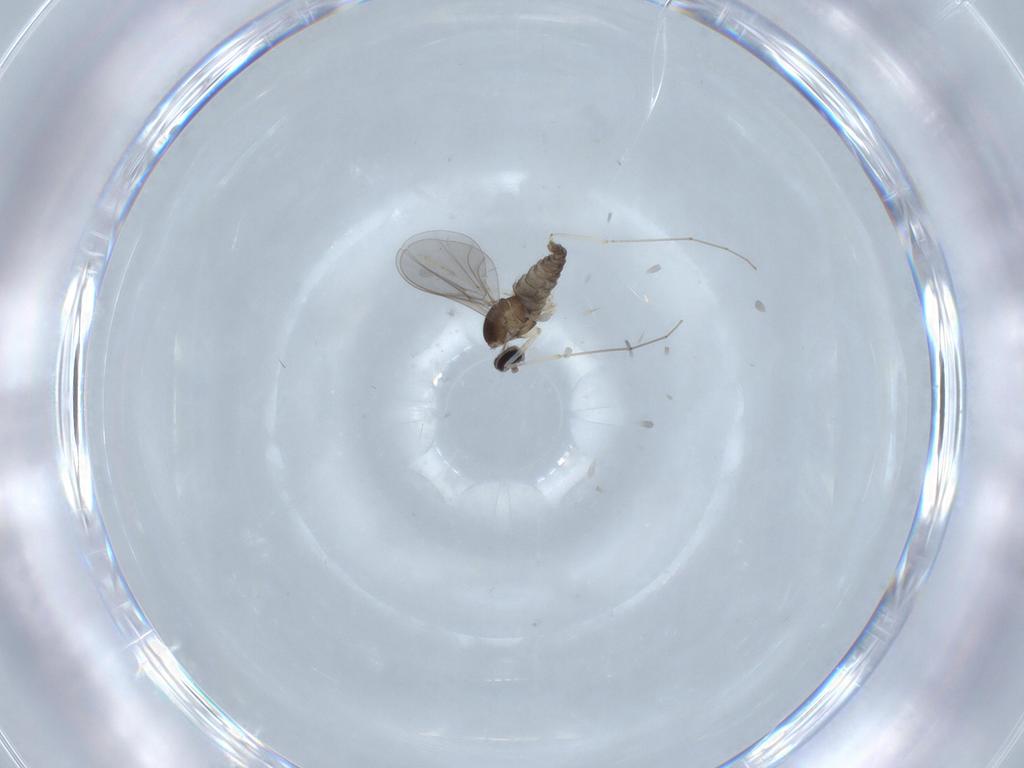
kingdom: Animalia
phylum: Arthropoda
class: Insecta
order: Diptera
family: Cecidomyiidae
